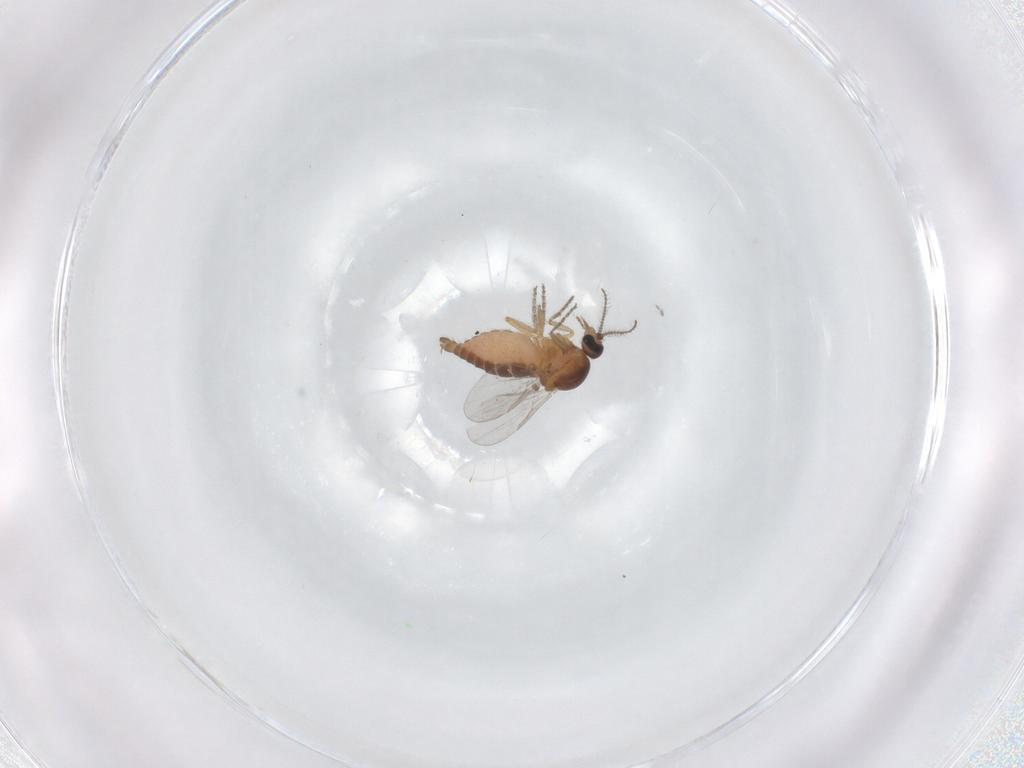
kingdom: Animalia
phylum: Arthropoda
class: Insecta
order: Diptera
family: Ceratopogonidae
